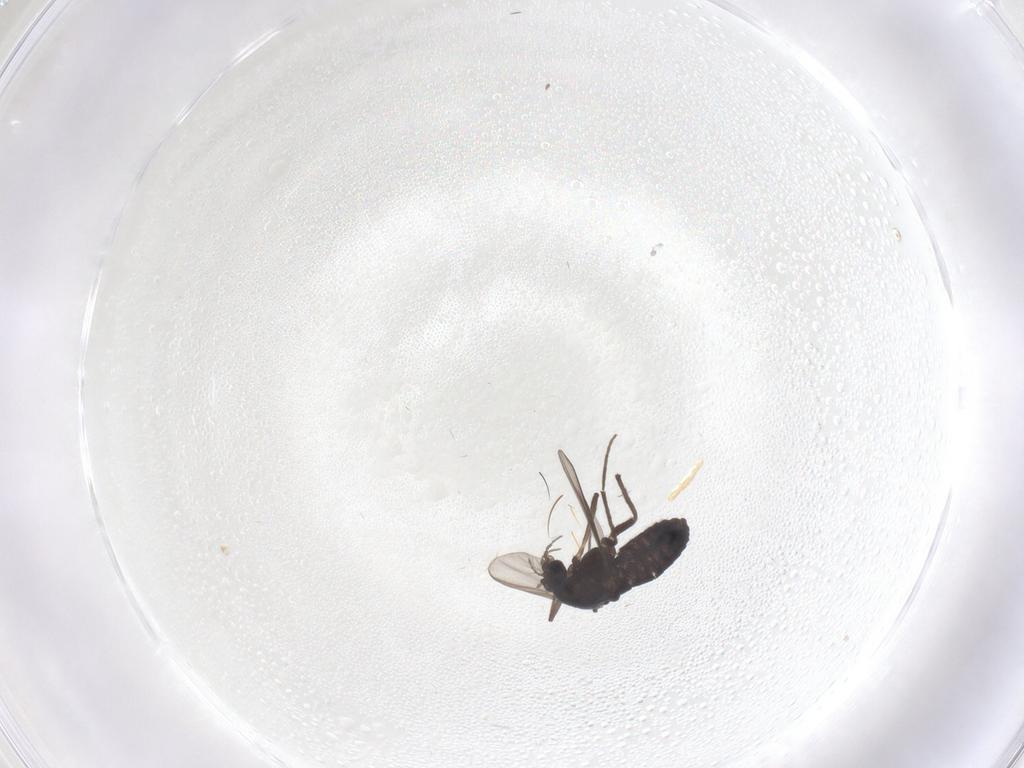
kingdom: Animalia
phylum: Arthropoda
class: Insecta
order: Diptera
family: Chironomidae
